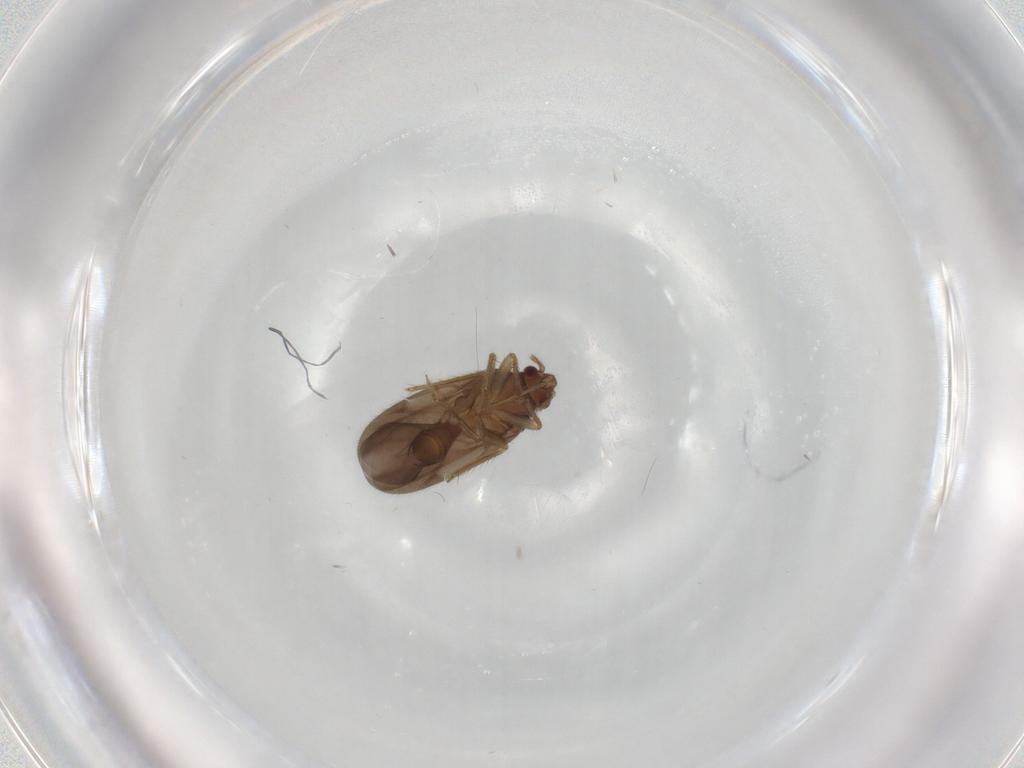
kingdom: Animalia
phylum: Arthropoda
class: Insecta
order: Hemiptera
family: Ceratocombidae
